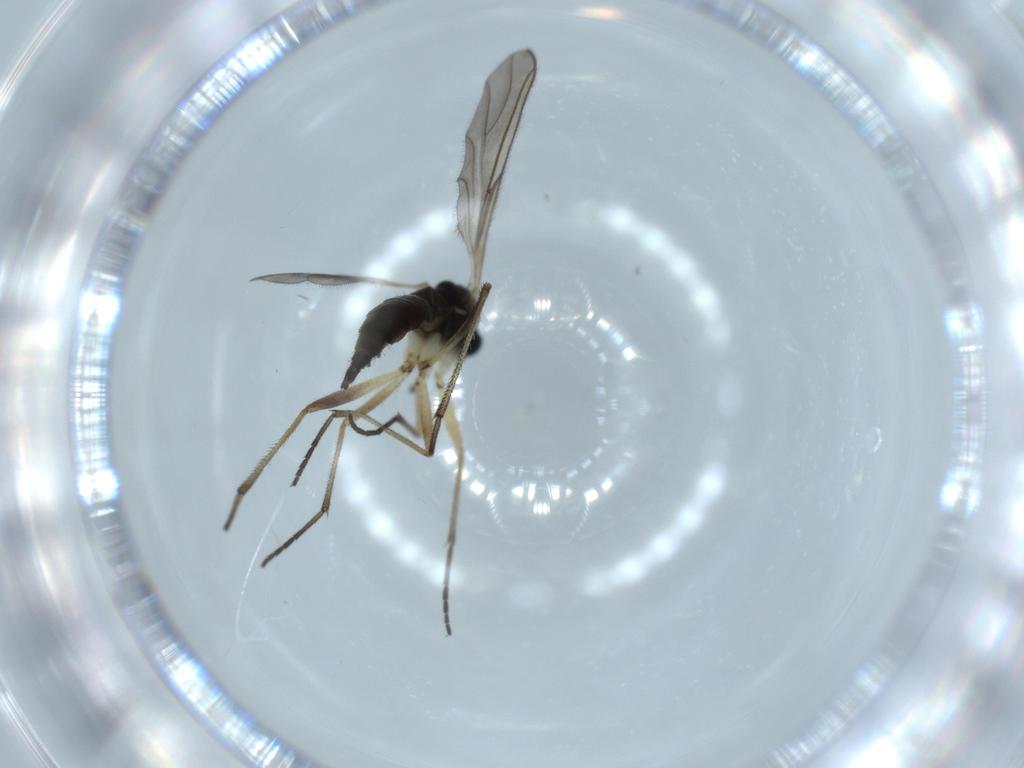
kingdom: Animalia
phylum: Arthropoda
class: Insecta
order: Diptera
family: Sciaridae
